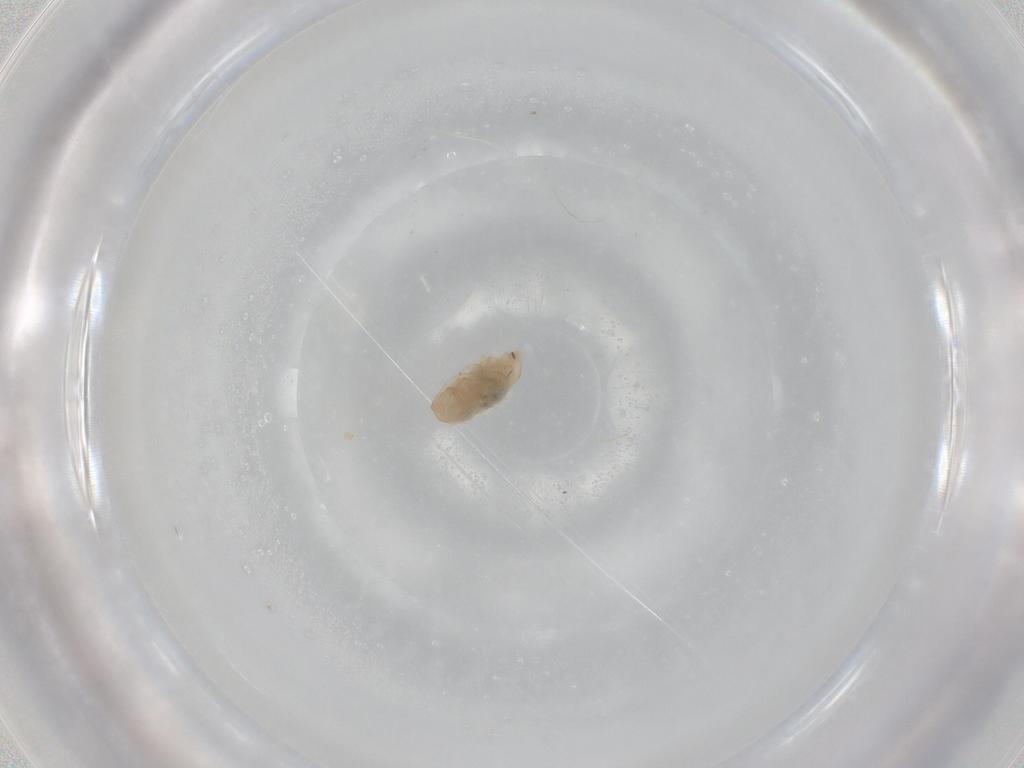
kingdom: Animalia
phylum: Arthropoda
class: Arachnida
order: Trombidiformes
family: Bdellidae
